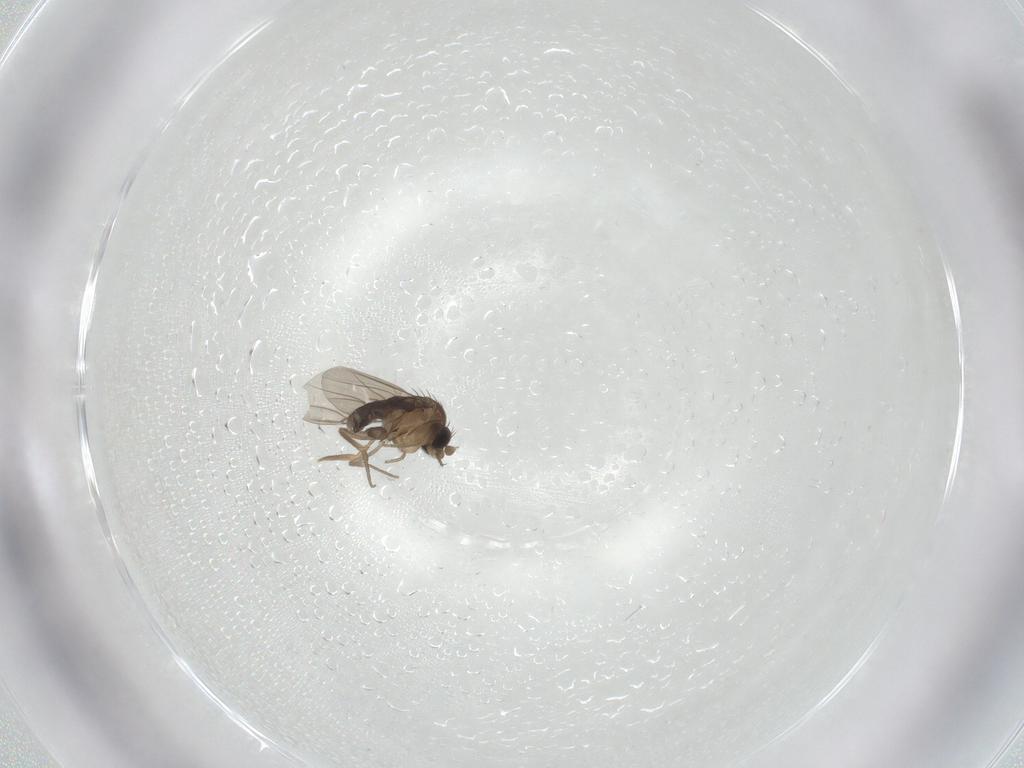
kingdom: Animalia
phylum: Arthropoda
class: Insecta
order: Diptera
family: Phoridae
